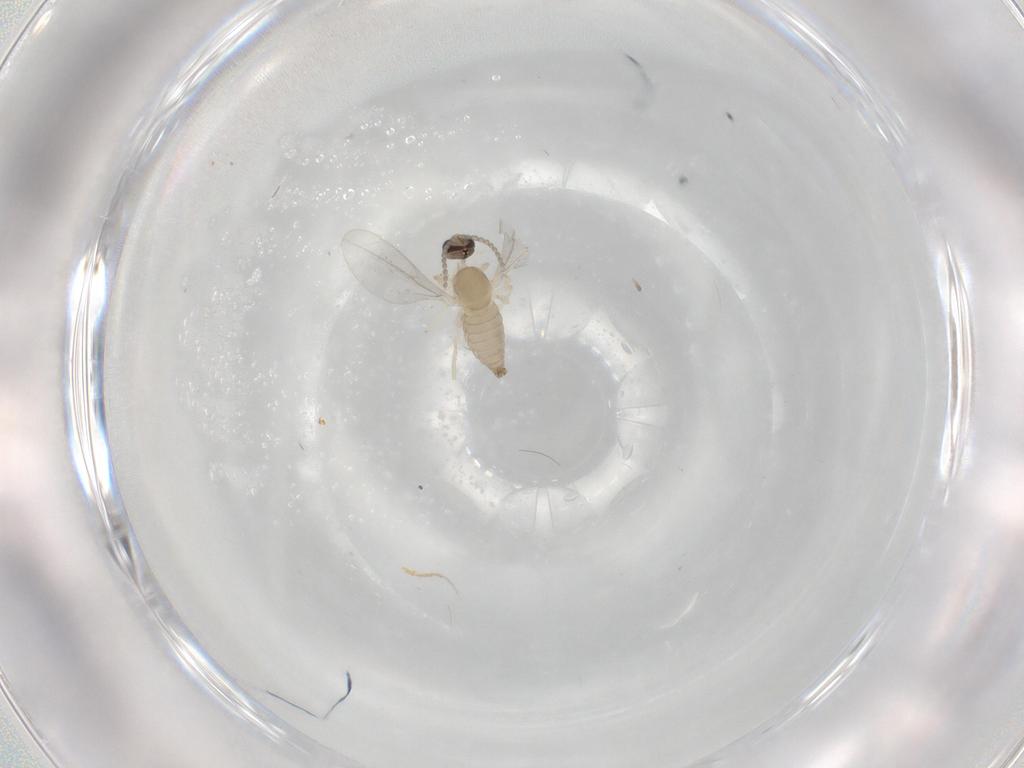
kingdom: Animalia
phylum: Arthropoda
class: Insecta
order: Diptera
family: Cecidomyiidae
